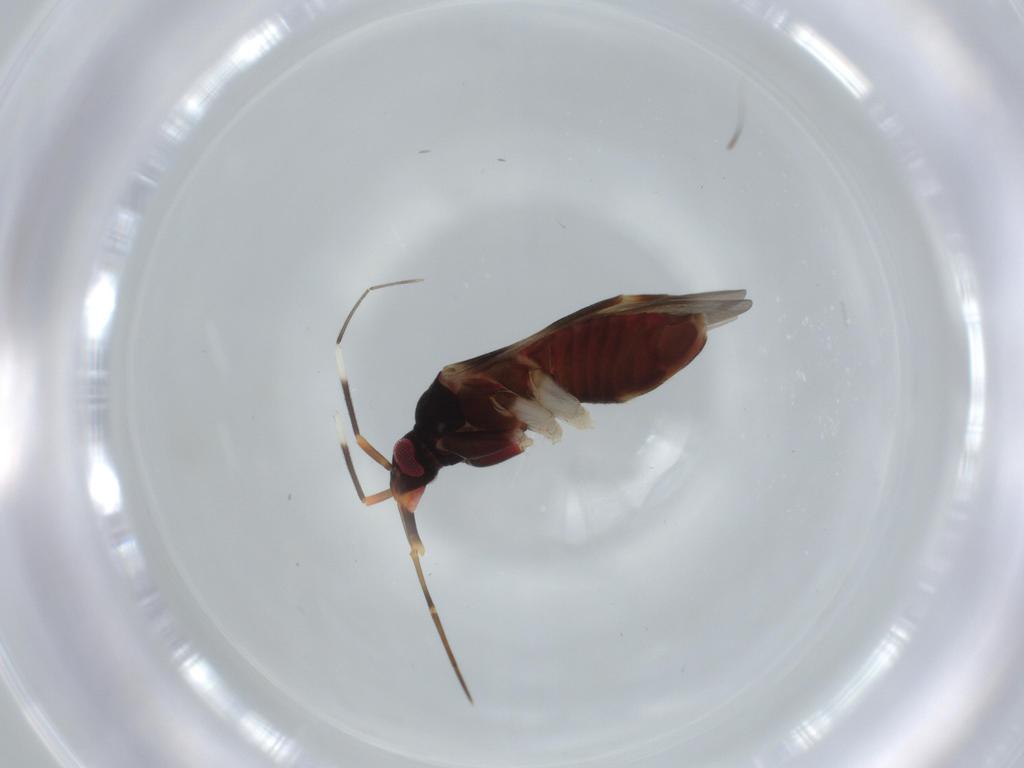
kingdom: Animalia
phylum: Arthropoda
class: Insecta
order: Hemiptera
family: Miridae
